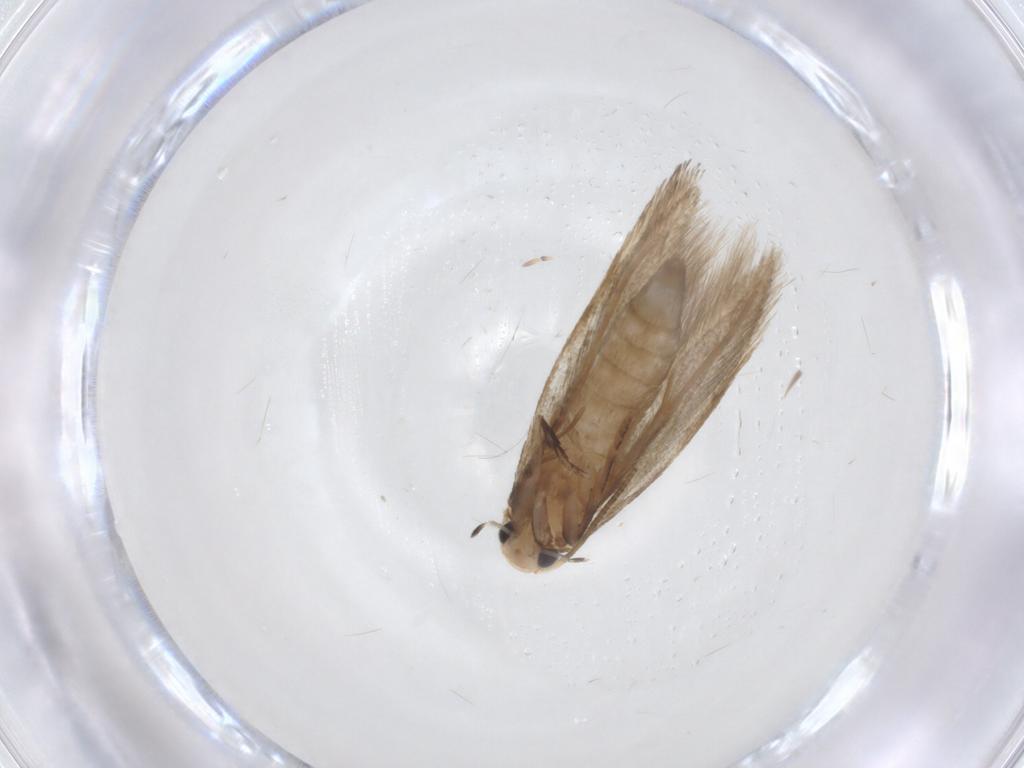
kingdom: Animalia
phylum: Arthropoda
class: Insecta
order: Lepidoptera
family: Tineidae
